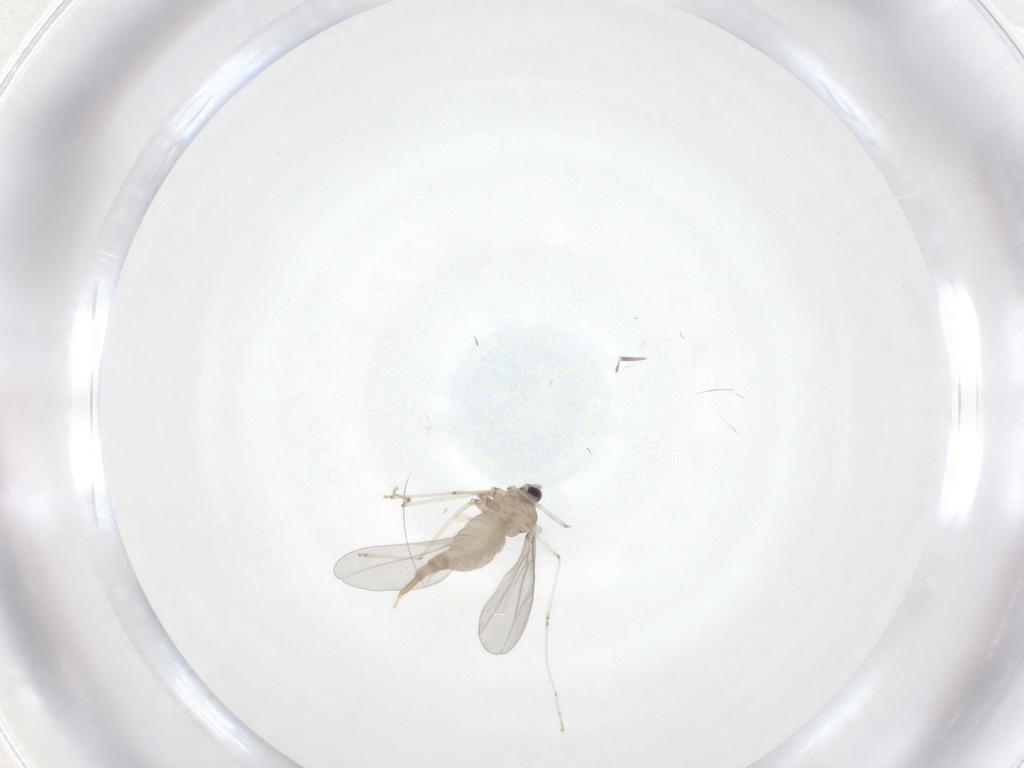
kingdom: Animalia
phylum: Arthropoda
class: Insecta
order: Diptera
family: Cecidomyiidae
